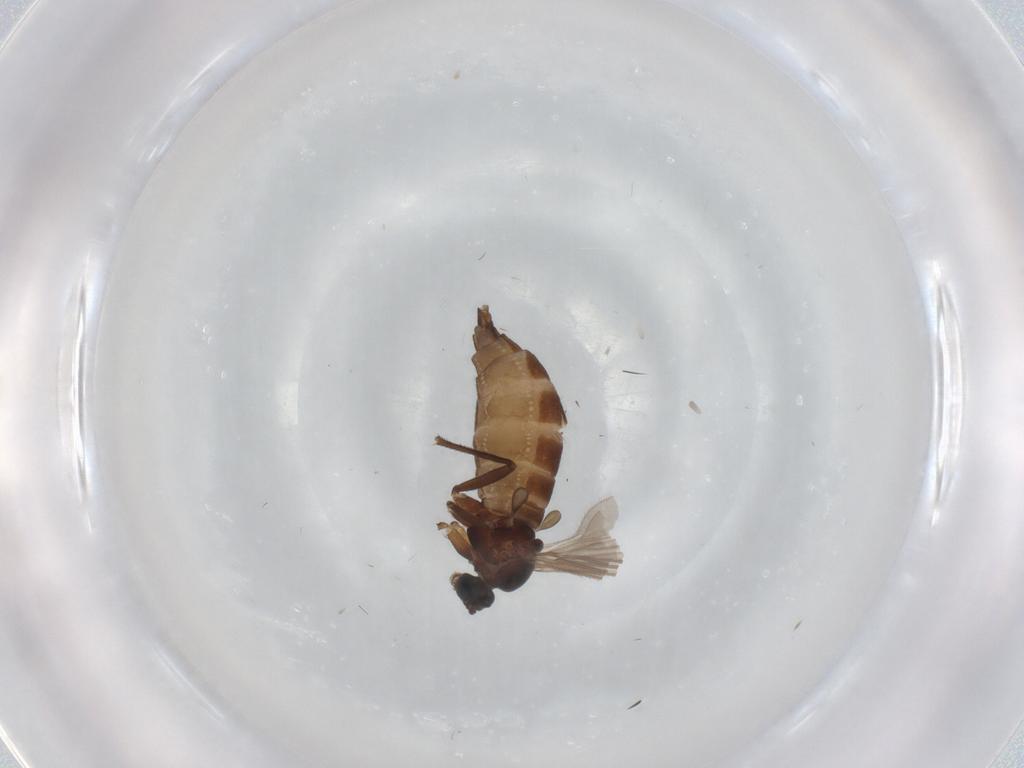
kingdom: Animalia
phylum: Arthropoda
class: Insecta
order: Diptera
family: Sciaridae
